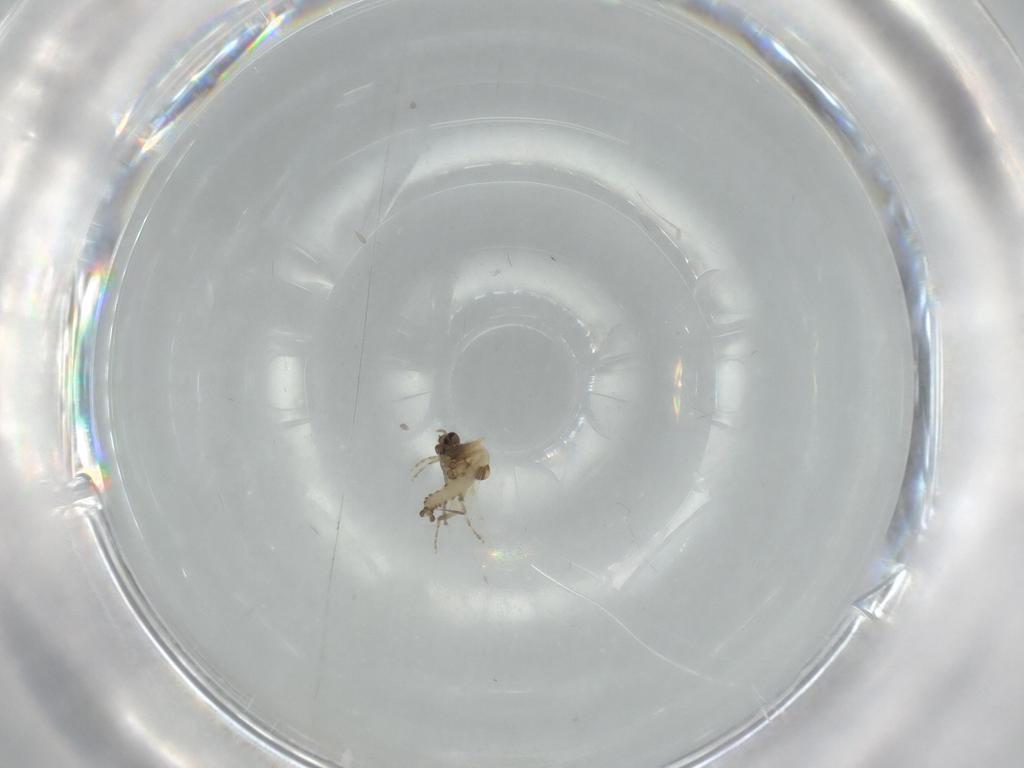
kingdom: Animalia
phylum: Arthropoda
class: Insecta
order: Diptera
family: Ceratopogonidae
